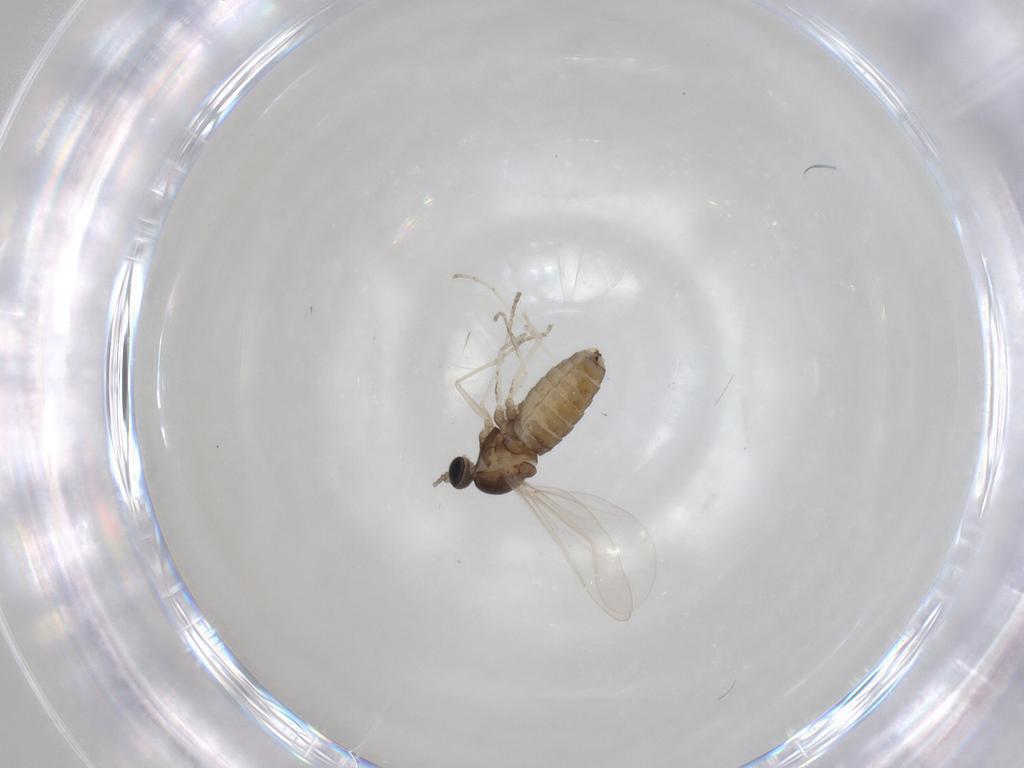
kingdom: Animalia
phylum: Arthropoda
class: Insecta
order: Diptera
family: Cecidomyiidae
